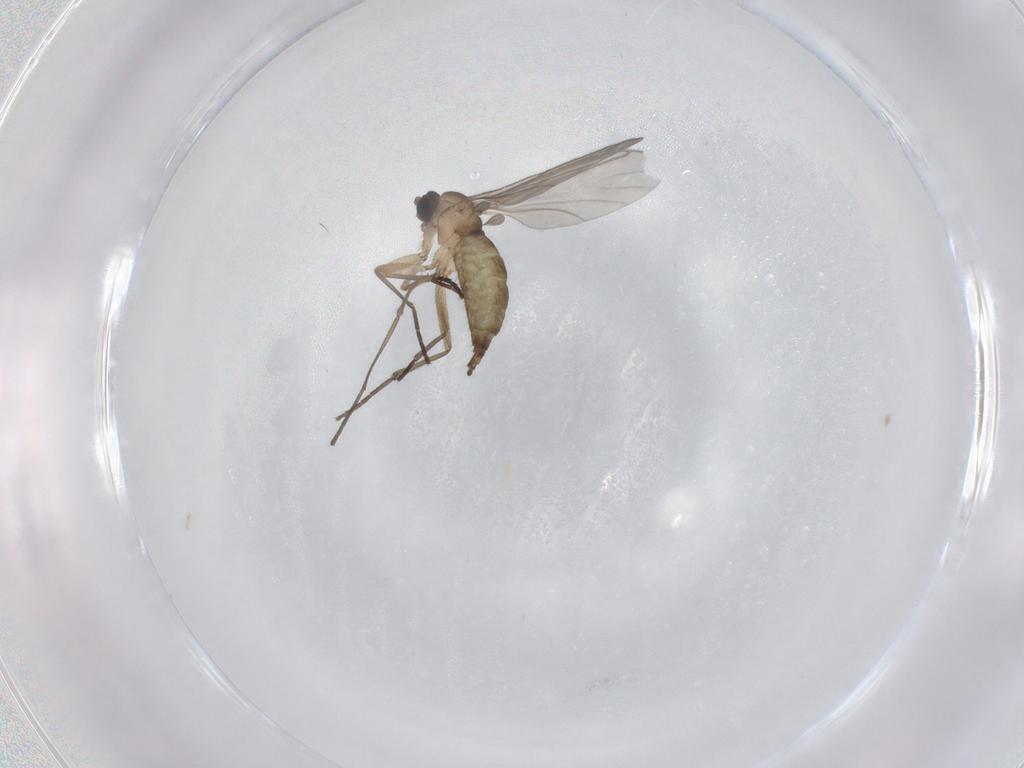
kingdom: Animalia
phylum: Arthropoda
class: Insecta
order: Diptera
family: Sciaridae
